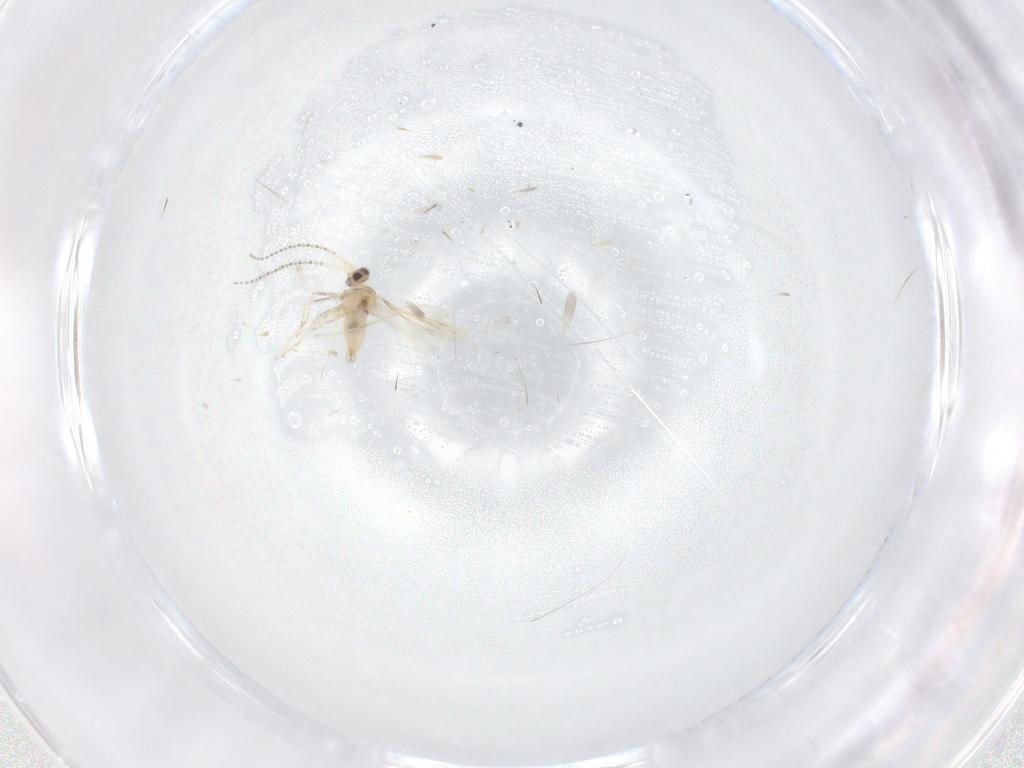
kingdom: Animalia
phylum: Arthropoda
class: Insecta
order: Diptera
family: Cecidomyiidae
